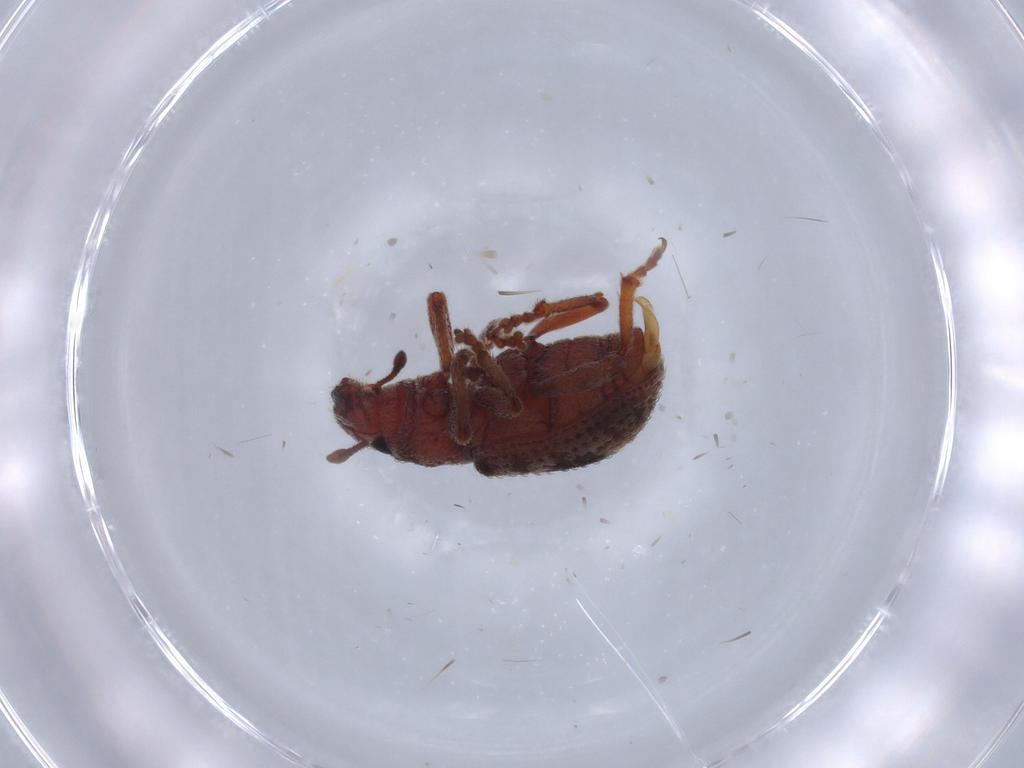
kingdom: Animalia
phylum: Arthropoda
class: Insecta
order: Coleoptera
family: Curculionidae
